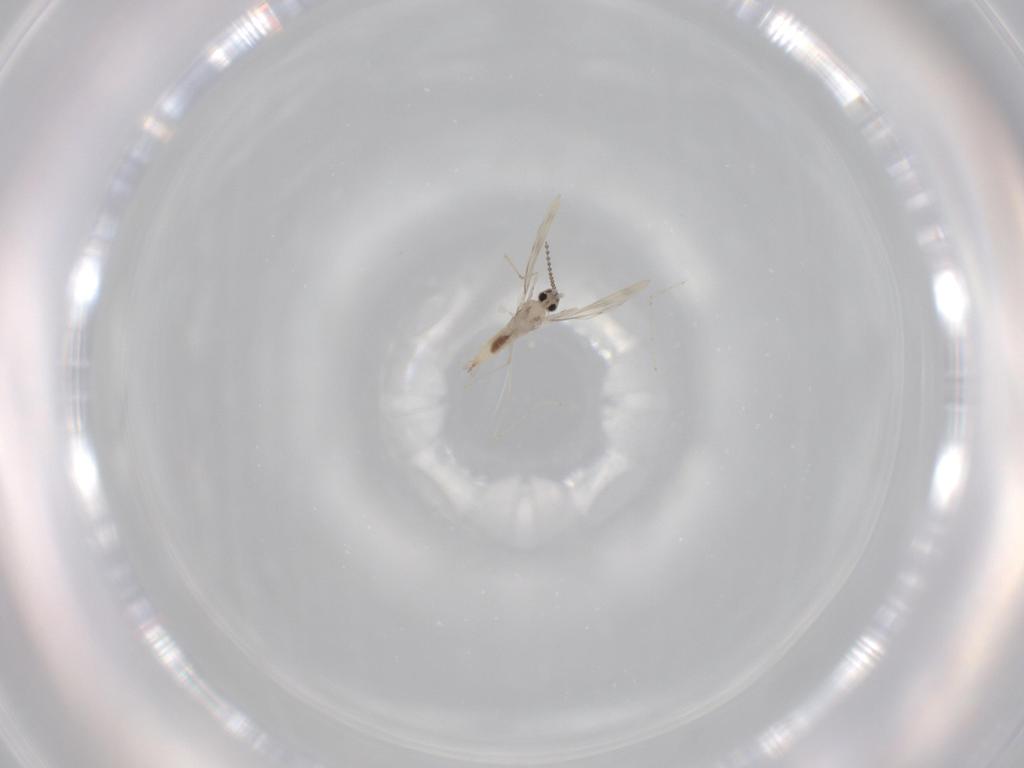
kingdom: Animalia
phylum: Arthropoda
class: Insecta
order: Diptera
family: Cecidomyiidae
